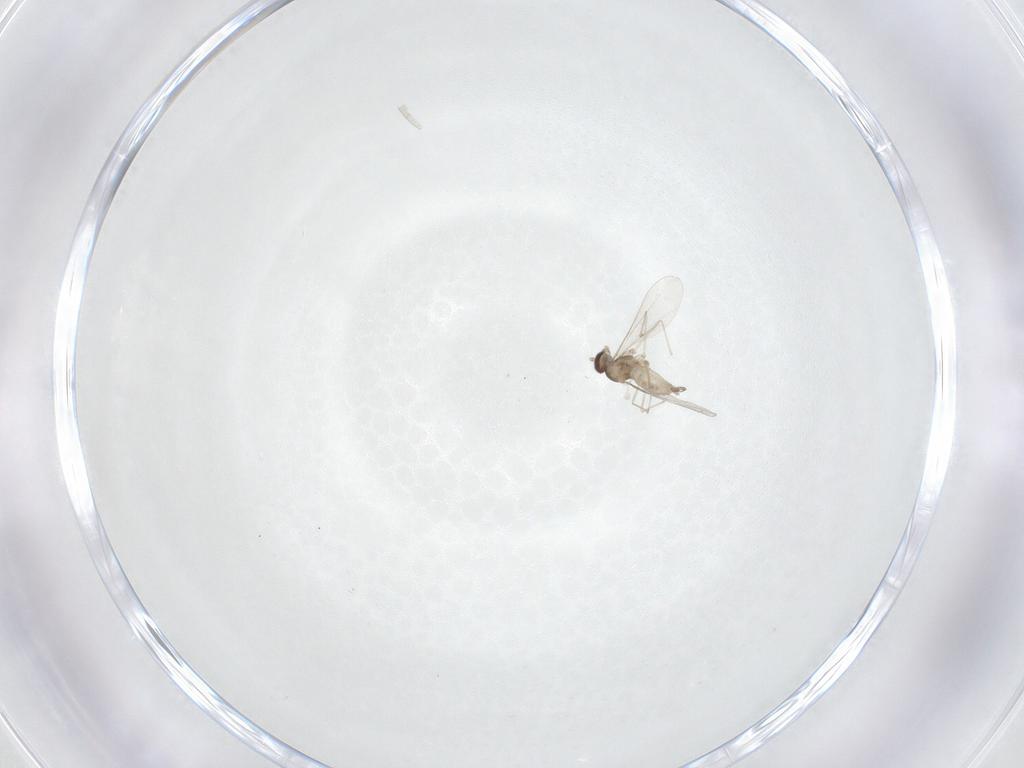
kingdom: Animalia
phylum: Arthropoda
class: Insecta
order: Diptera
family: Cecidomyiidae
